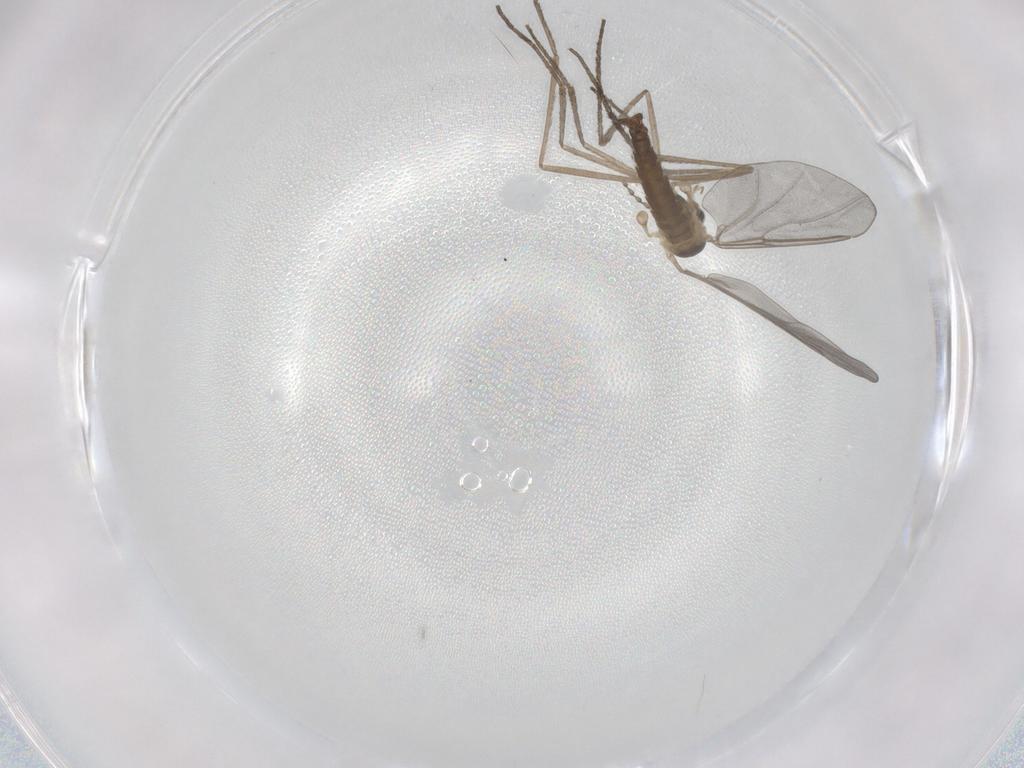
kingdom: Animalia
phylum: Arthropoda
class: Insecta
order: Diptera
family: Cecidomyiidae
